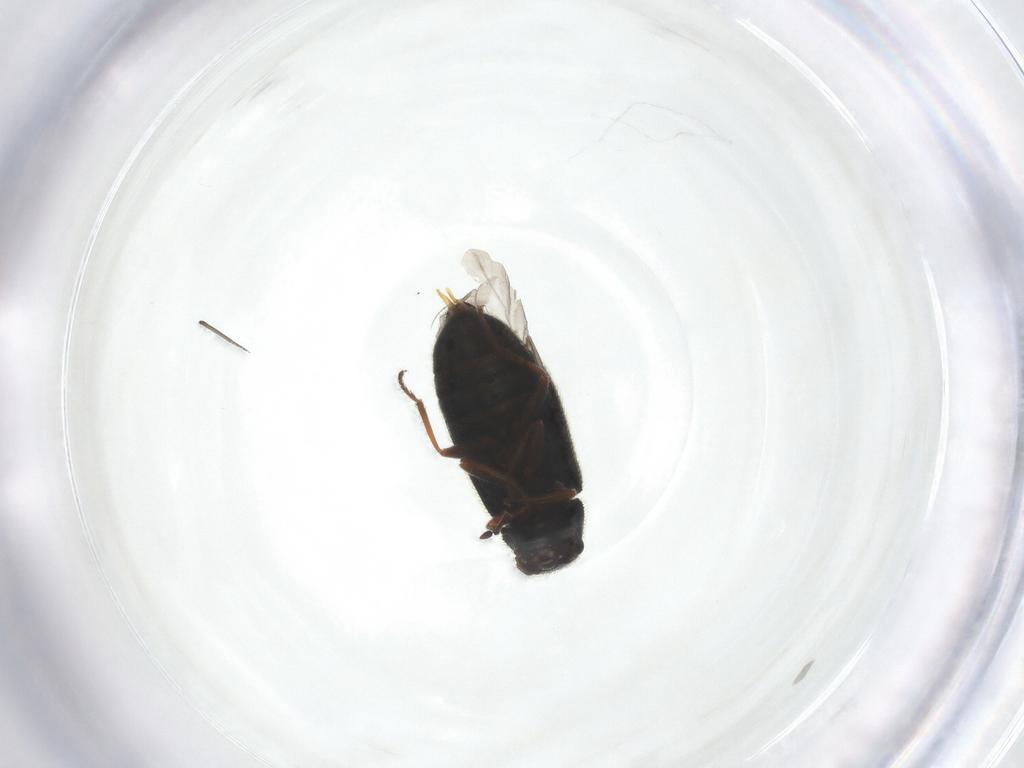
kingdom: Animalia
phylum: Arthropoda
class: Insecta
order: Coleoptera
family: Melyridae
